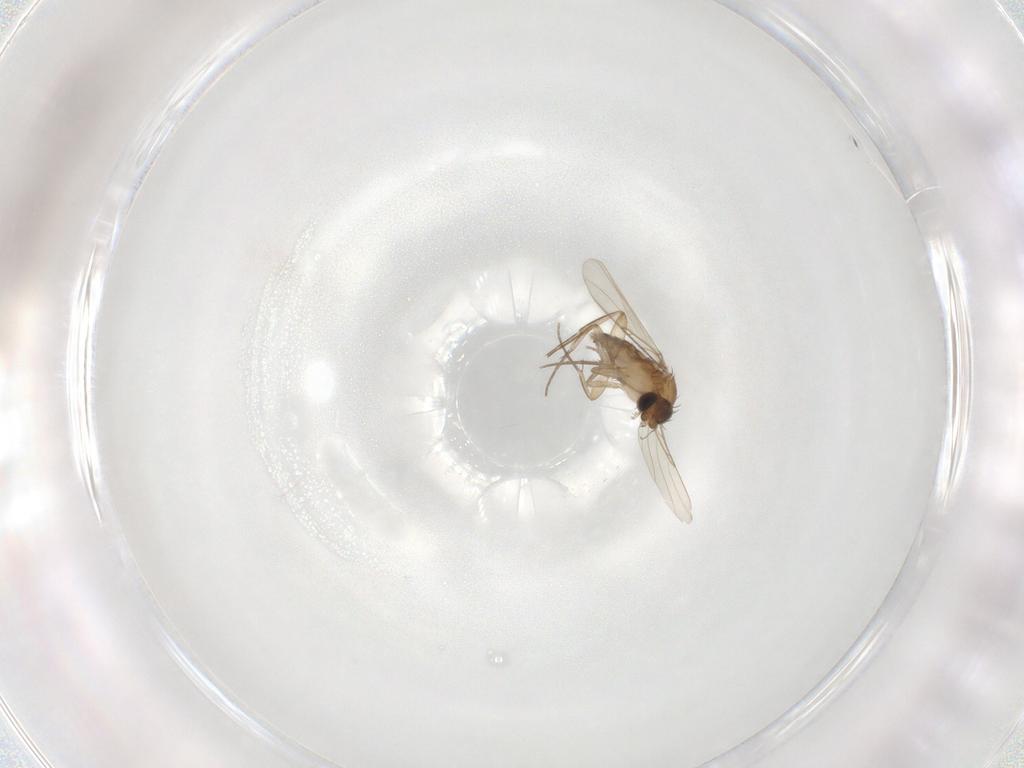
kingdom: Animalia
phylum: Arthropoda
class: Insecta
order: Diptera
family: Phoridae
